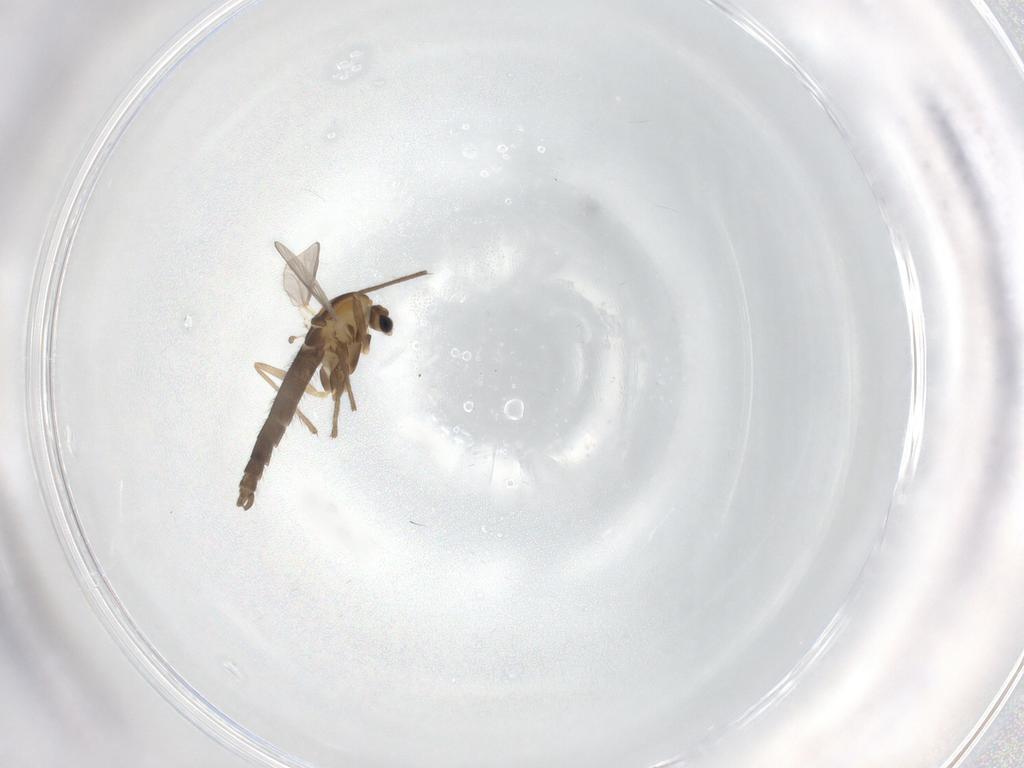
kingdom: Animalia
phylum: Arthropoda
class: Insecta
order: Diptera
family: Chironomidae
